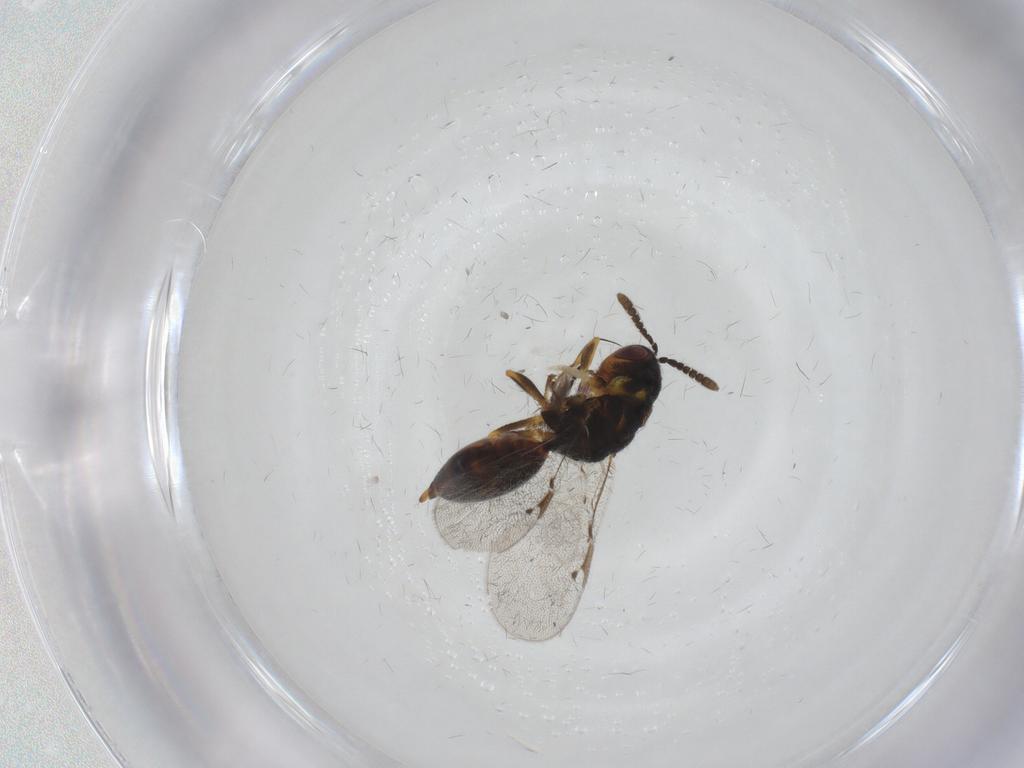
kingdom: Animalia
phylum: Arthropoda
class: Insecta
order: Hymenoptera
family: Eurytomidae
